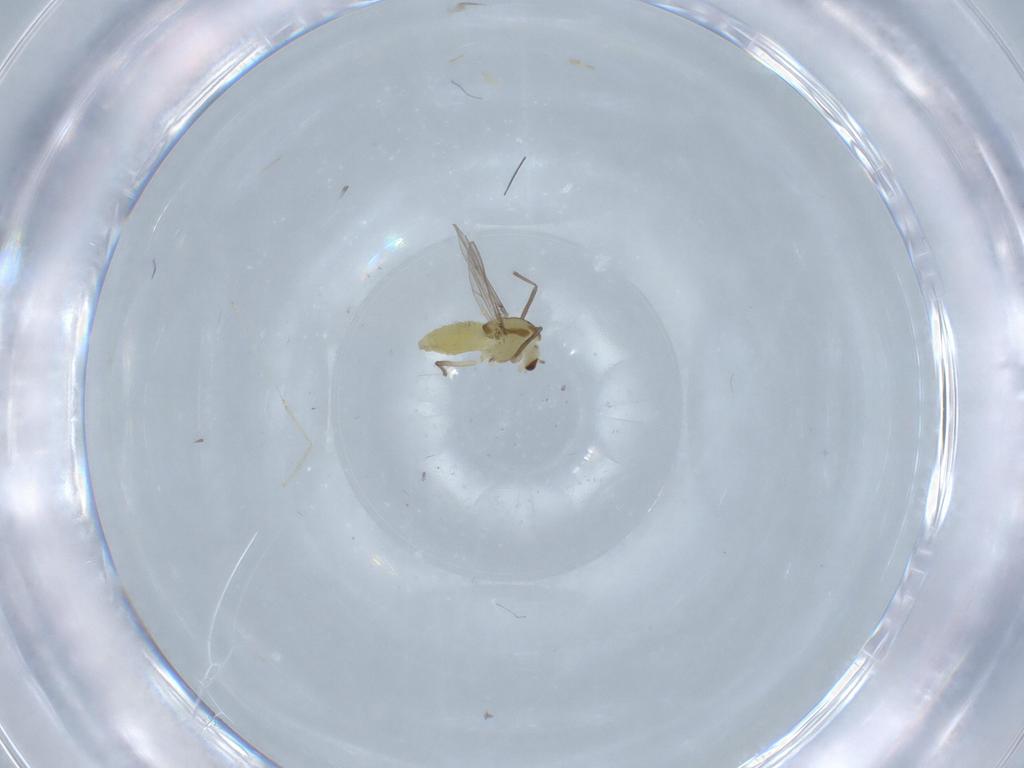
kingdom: Animalia
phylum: Arthropoda
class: Insecta
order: Diptera
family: Chironomidae
